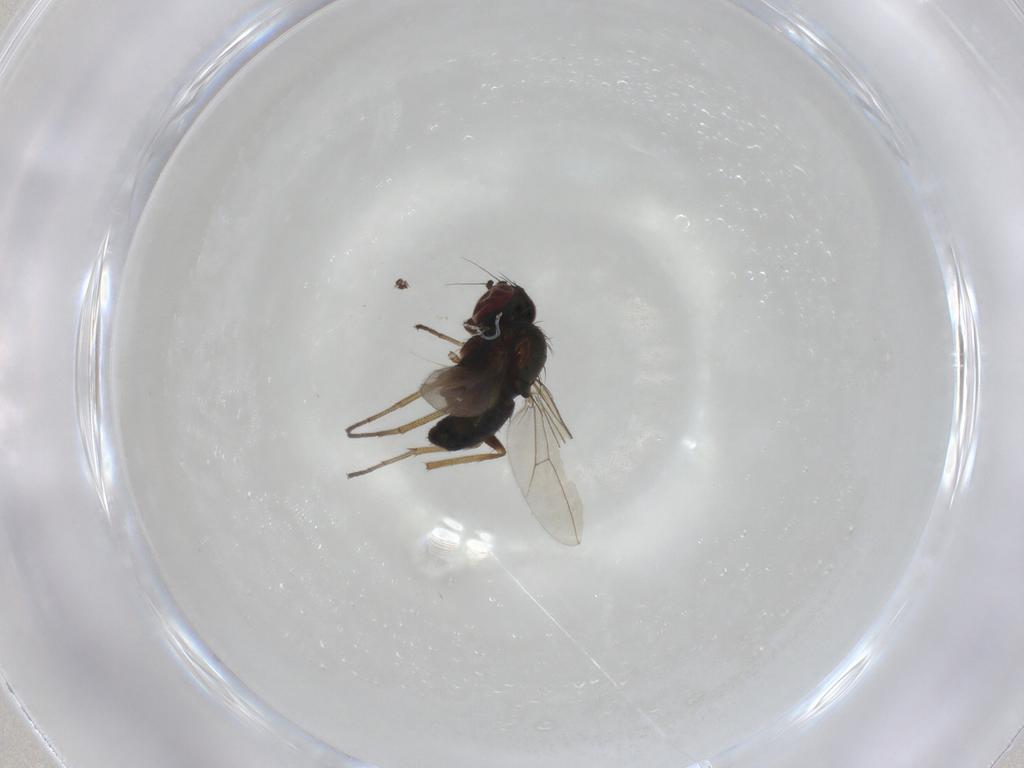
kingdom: Animalia
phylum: Arthropoda
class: Insecta
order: Diptera
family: Dolichopodidae
